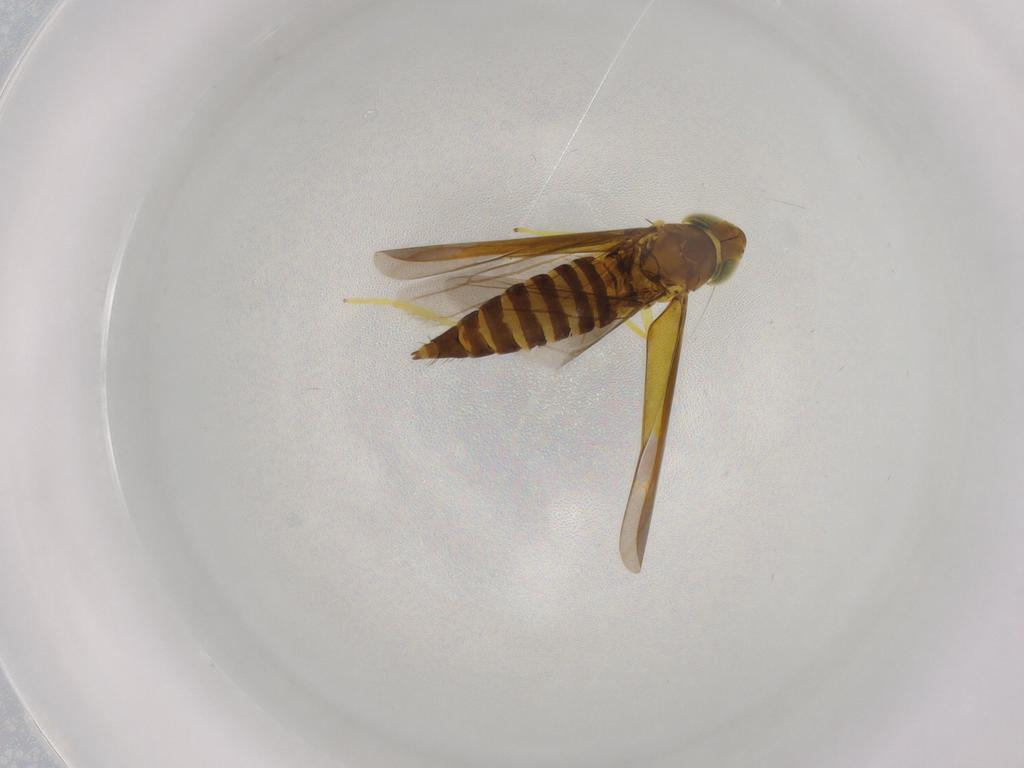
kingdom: Animalia
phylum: Arthropoda
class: Insecta
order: Hemiptera
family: Cicadellidae
